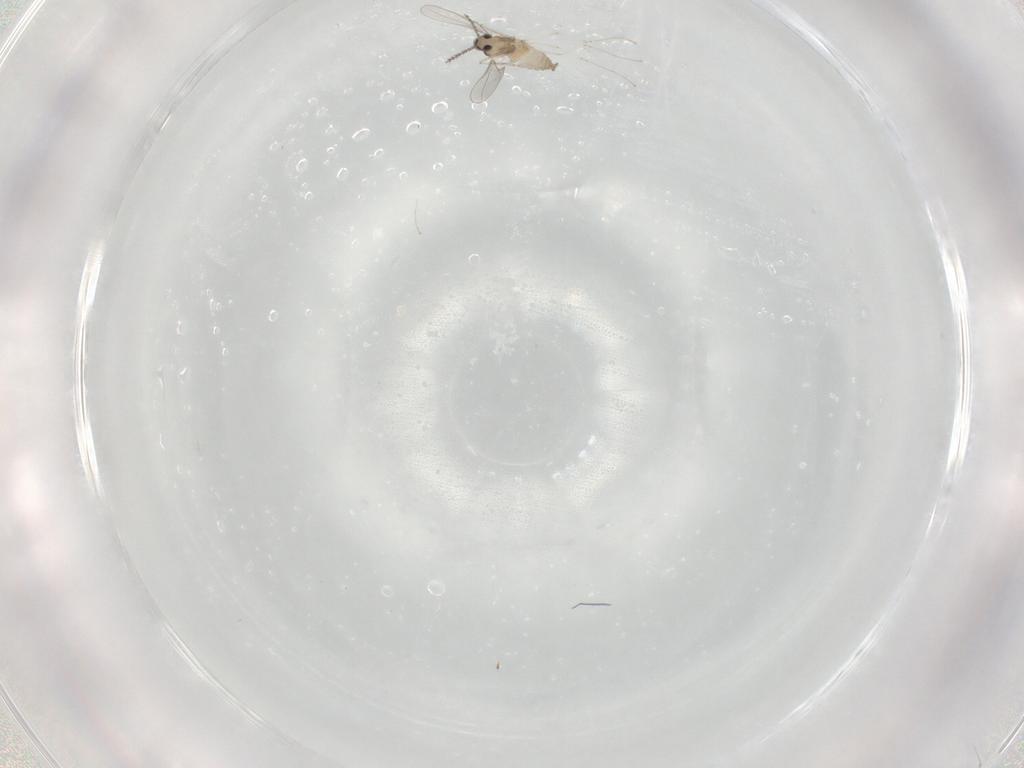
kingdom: Animalia
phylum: Arthropoda
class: Insecta
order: Diptera
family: Cecidomyiidae
